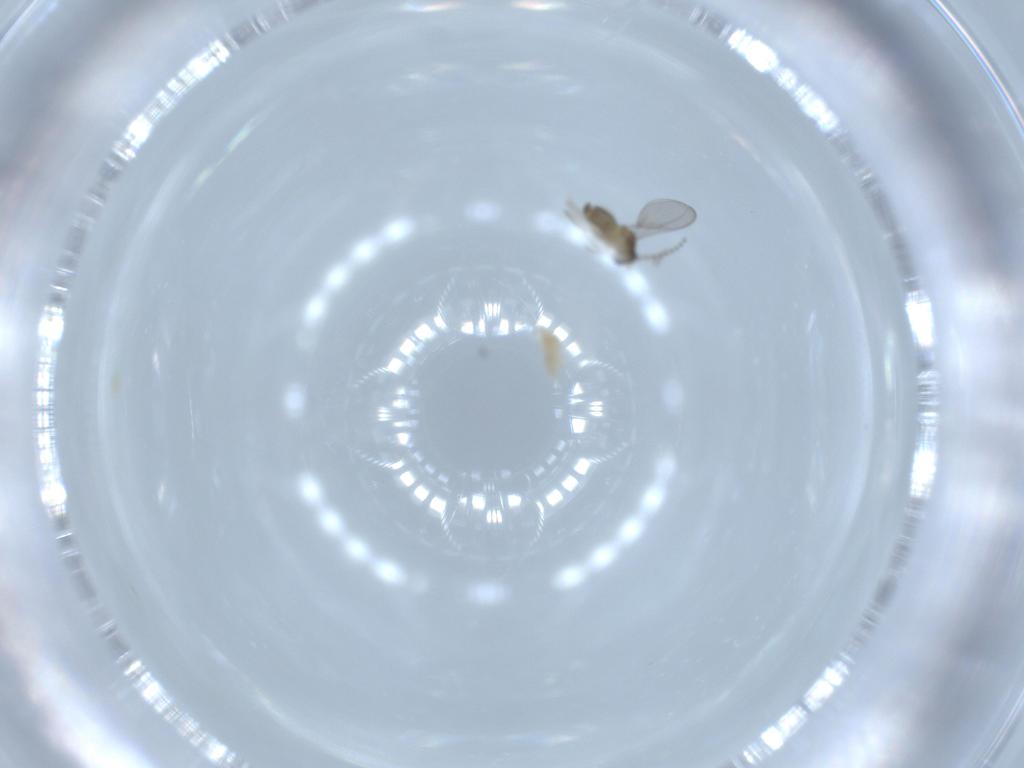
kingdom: Animalia
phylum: Arthropoda
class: Insecta
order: Diptera
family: Cecidomyiidae
